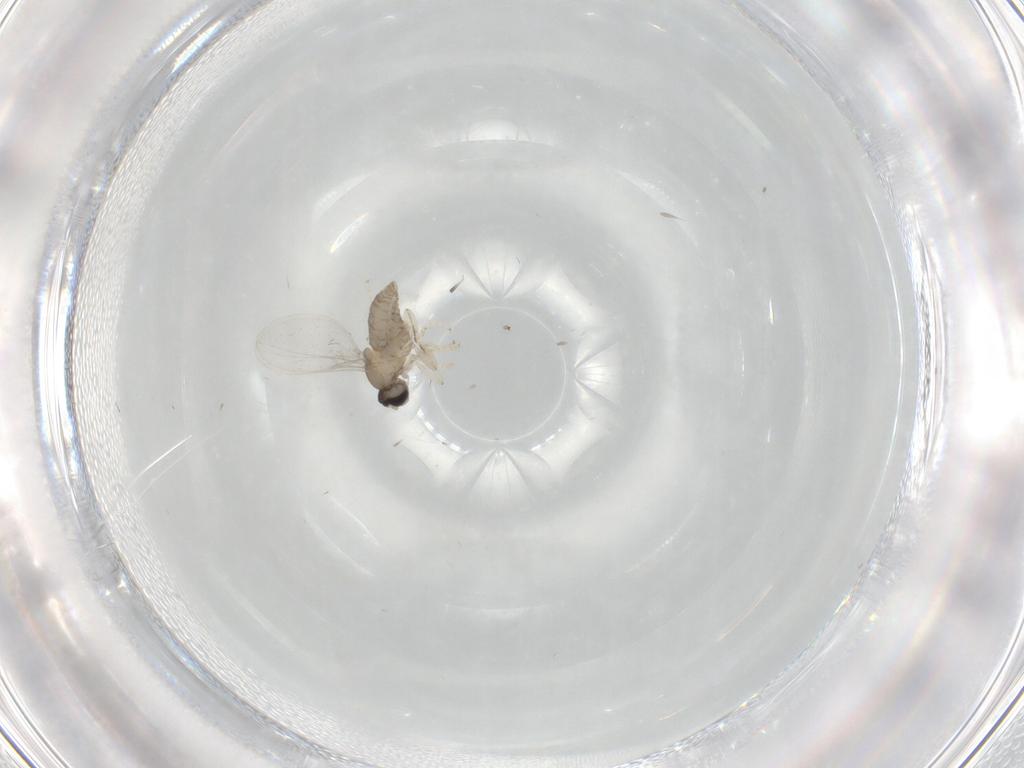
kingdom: Animalia
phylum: Arthropoda
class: Insecta
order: Diptera
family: Ceratopogonidae
